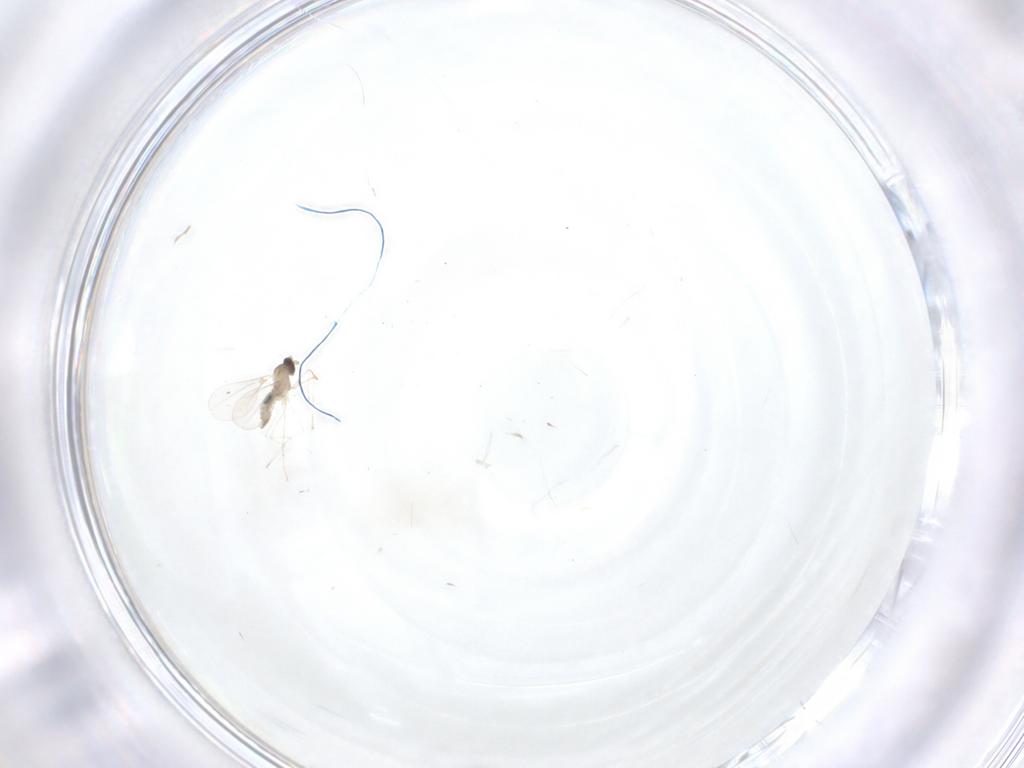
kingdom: Animalia
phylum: Arthropoda
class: Insecta
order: Diptera
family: Cecidomyiidae
